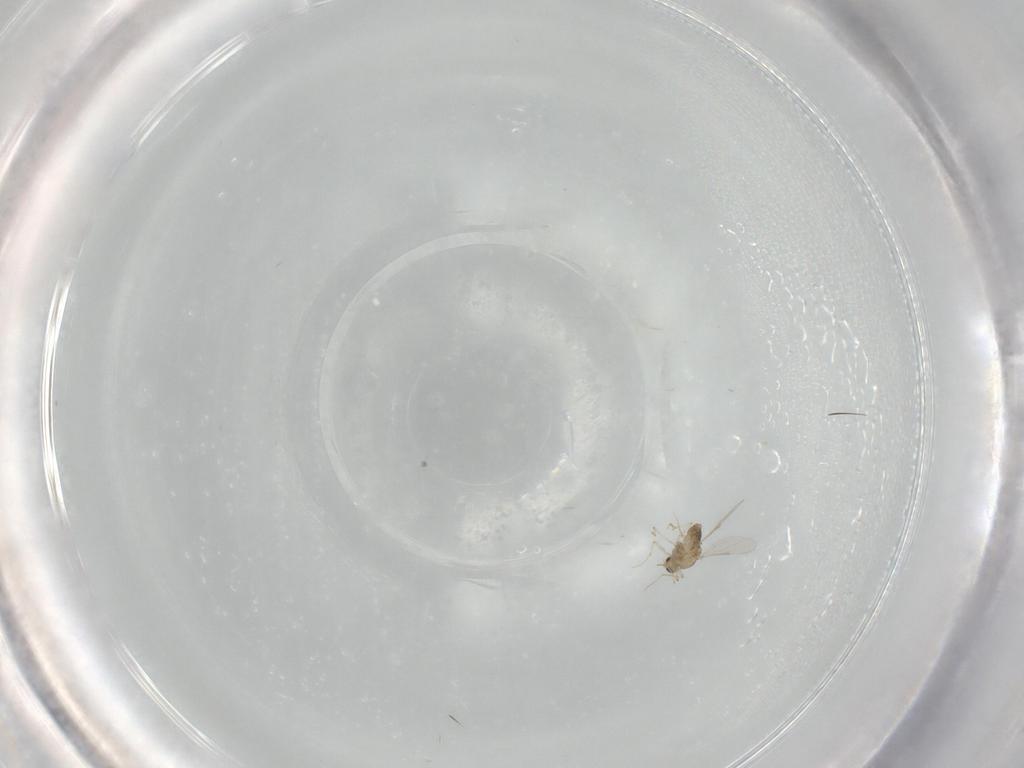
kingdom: Animalia
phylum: Arthropoda
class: Insecta
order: Diptera
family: Chironomidae
